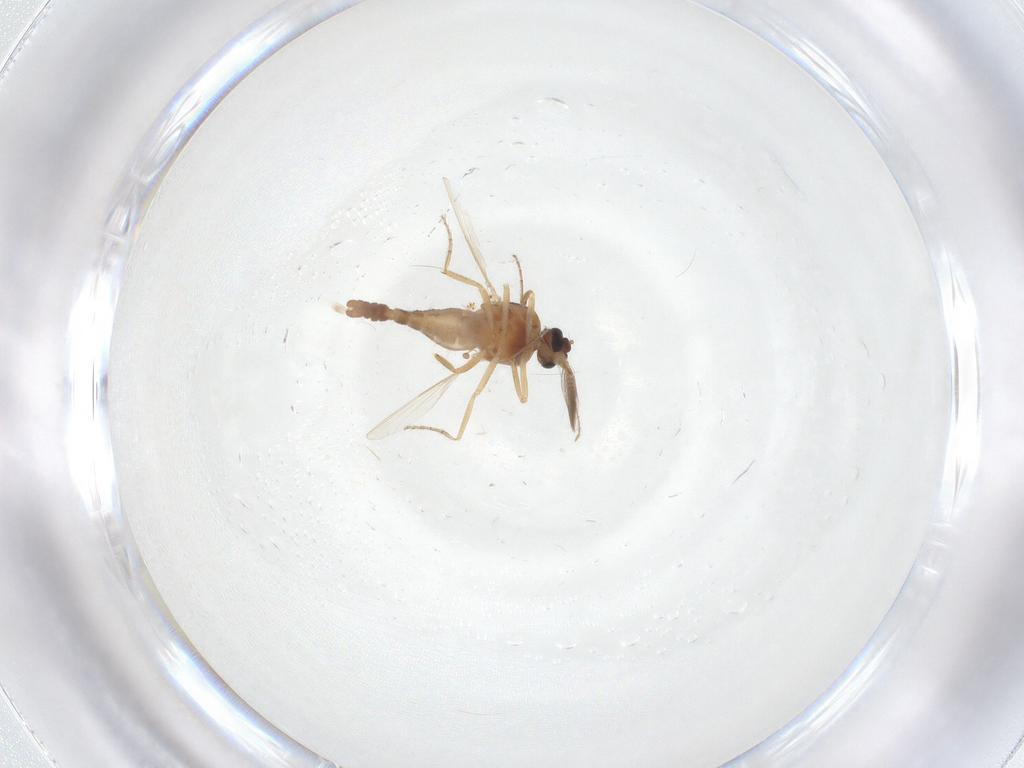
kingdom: Animalia
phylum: Arthropoda
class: Insecta
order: Diptera
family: Ceratopogonidae
